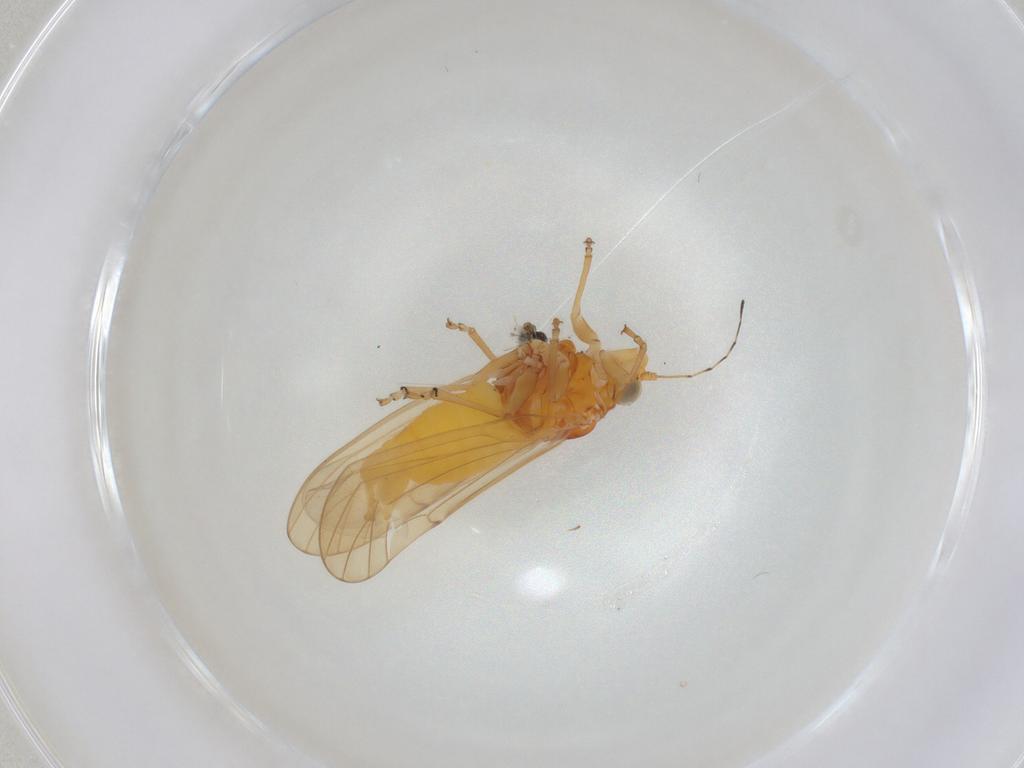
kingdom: Animalia
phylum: Arthropoda
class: Insecta
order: Hemiptera
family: Psylloidea_incertae_sedis
